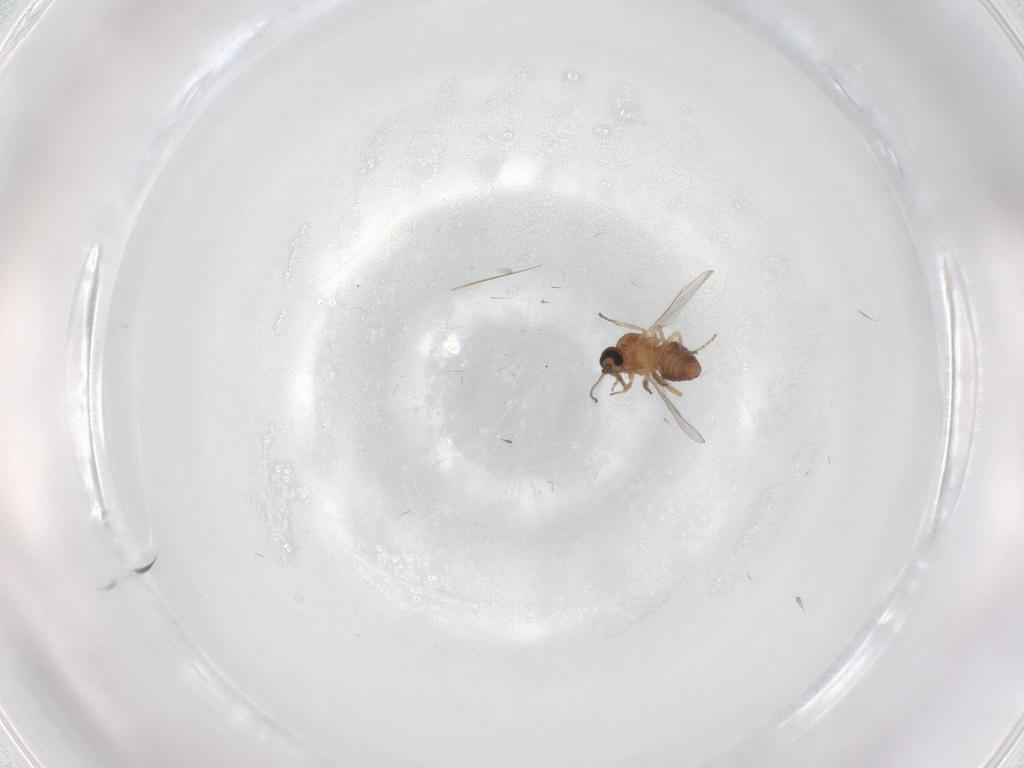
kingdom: Animalia
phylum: Arthropoda
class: Insecta
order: Diptera
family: Ceratopogonidae
